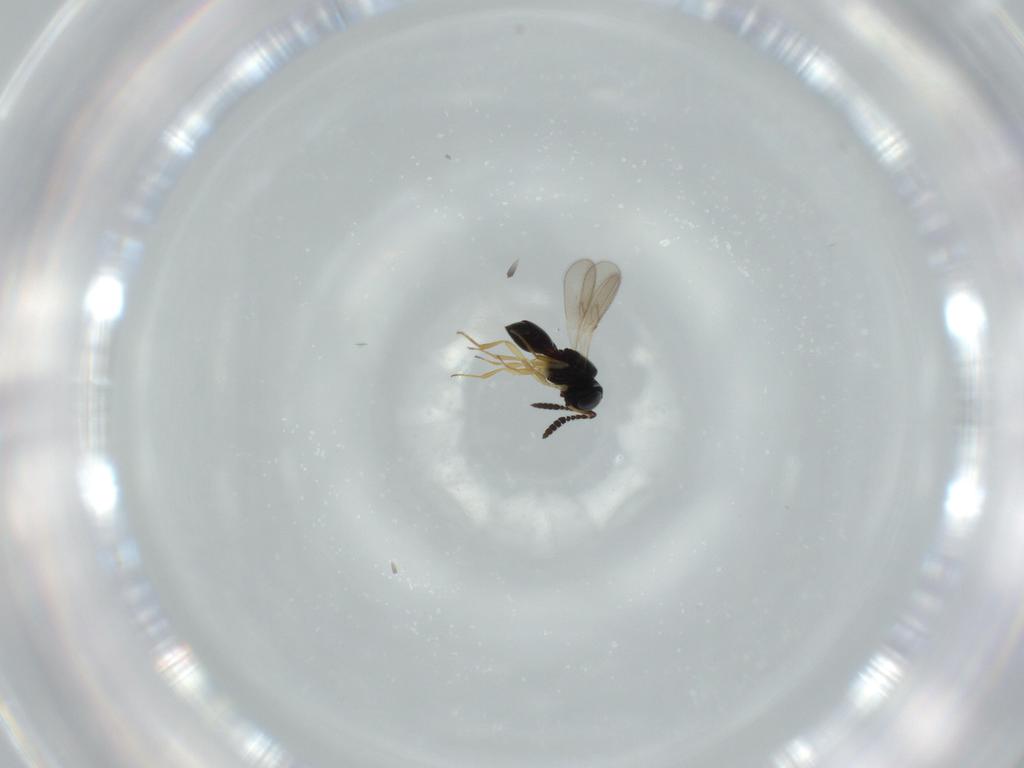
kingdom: Animalia
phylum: Arthropoda
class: Insecta
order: Hymenoptera
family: Scelionidae
